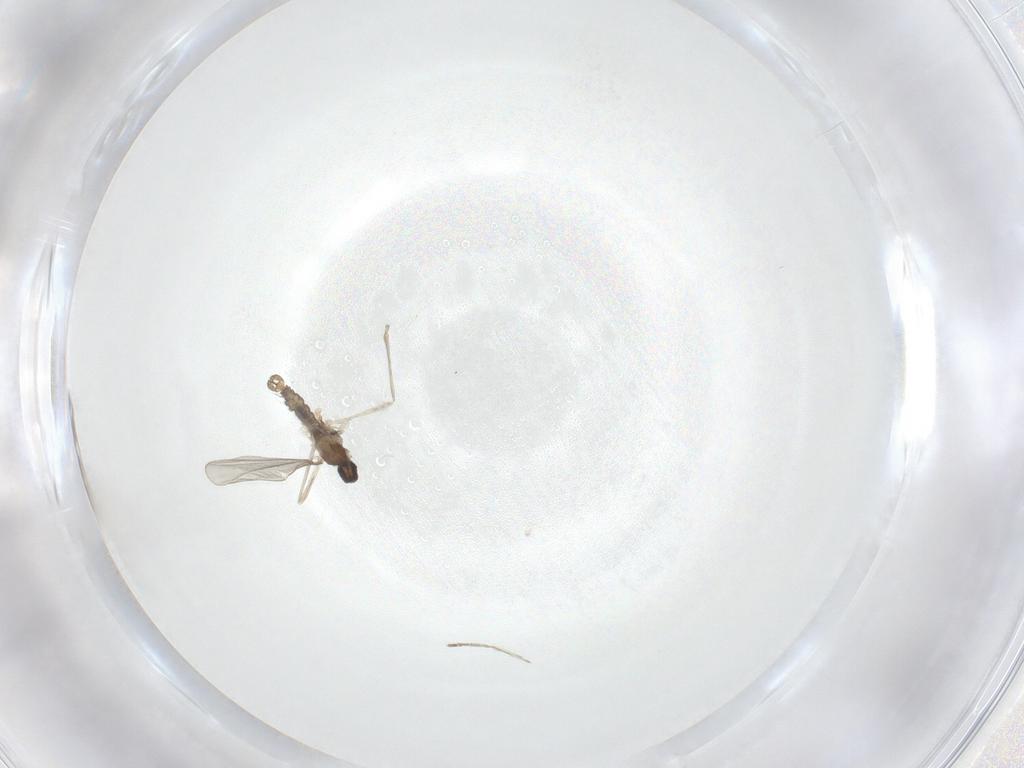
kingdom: Animalia
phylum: Arthropoda
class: Insecta
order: Diptera
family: Cecidomyiidae
